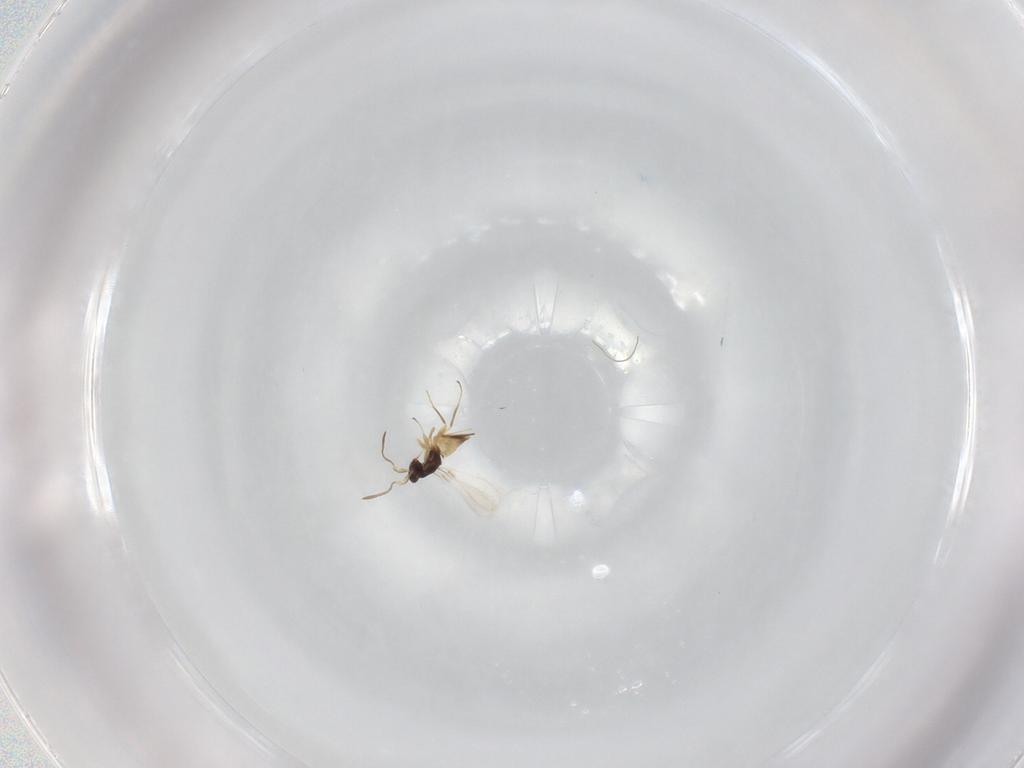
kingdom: Animalia
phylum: Arthropoda
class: Insecta
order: Hymenoptera
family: Mymaridae
